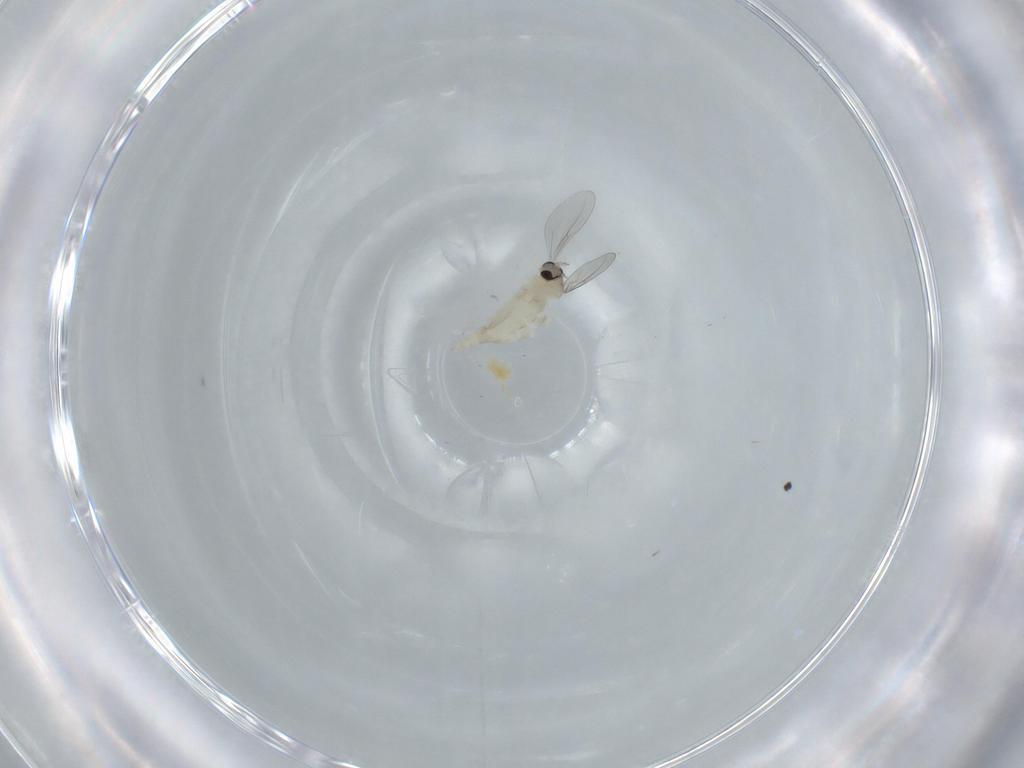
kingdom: Animalia
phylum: Arthropoda
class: Insecta
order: Diptera
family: Cecidomyiidae
